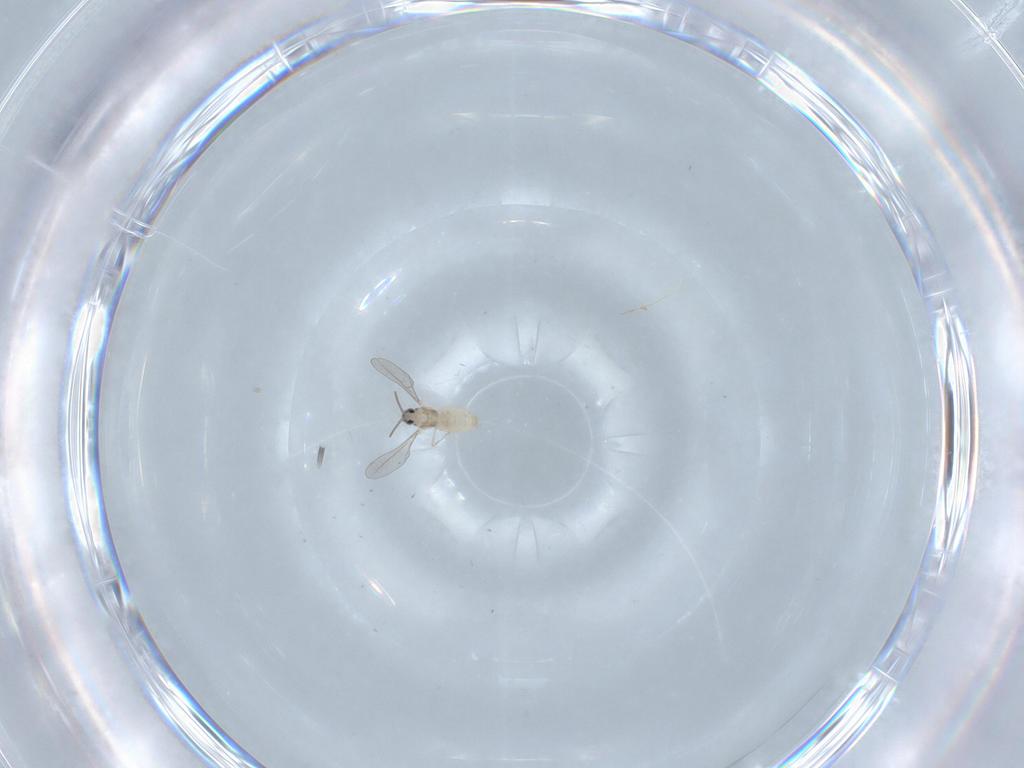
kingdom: Animalia
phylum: Arthropoda
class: Insecta
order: Diptera
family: Cecidomyiidae
